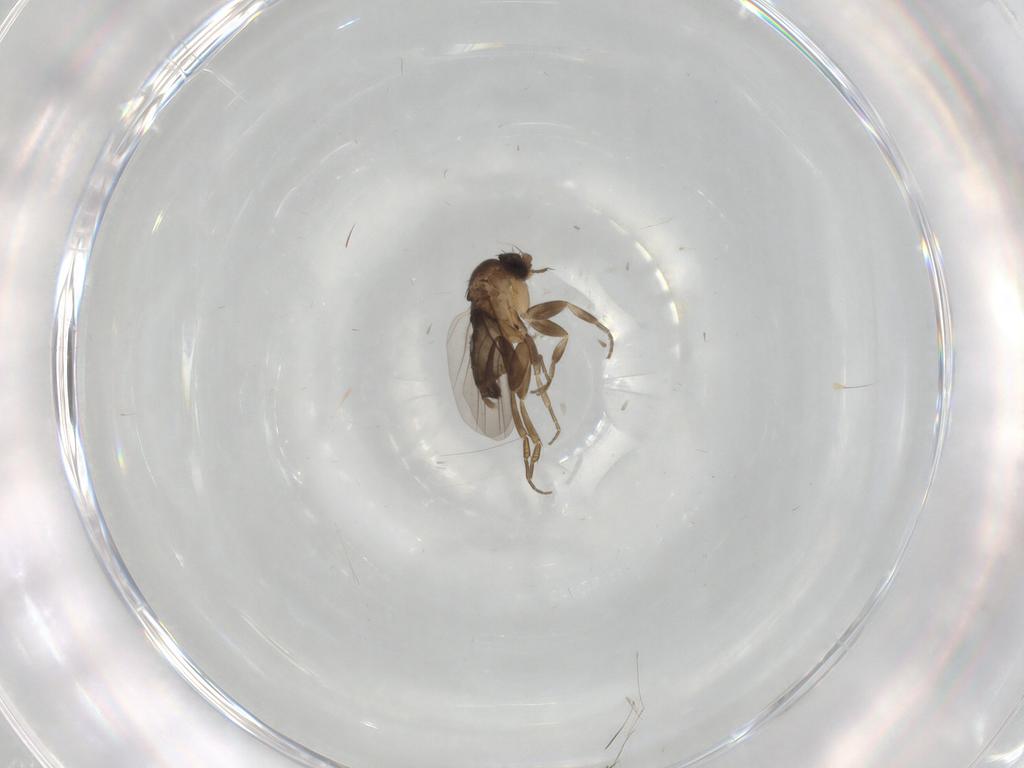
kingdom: Animalia
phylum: Arthropoda
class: Insecta
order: Diptera
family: Phoridae
